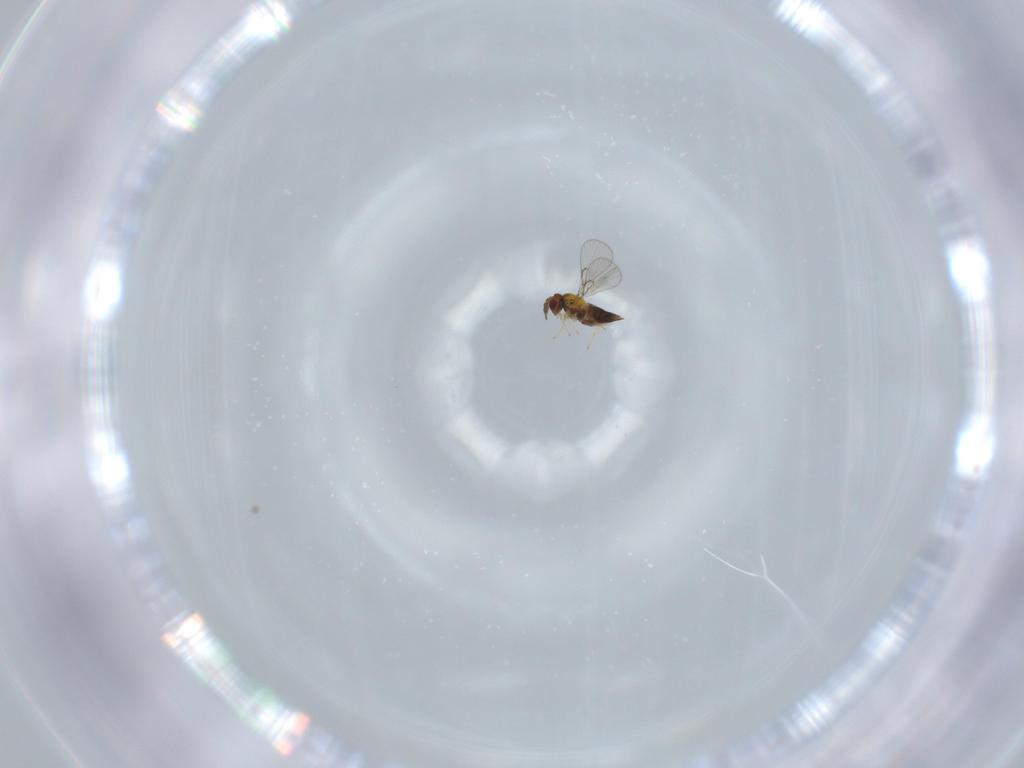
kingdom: Animalia
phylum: Arthropoda
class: Insecta
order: Hymenoptera
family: Trichogrammatidae
